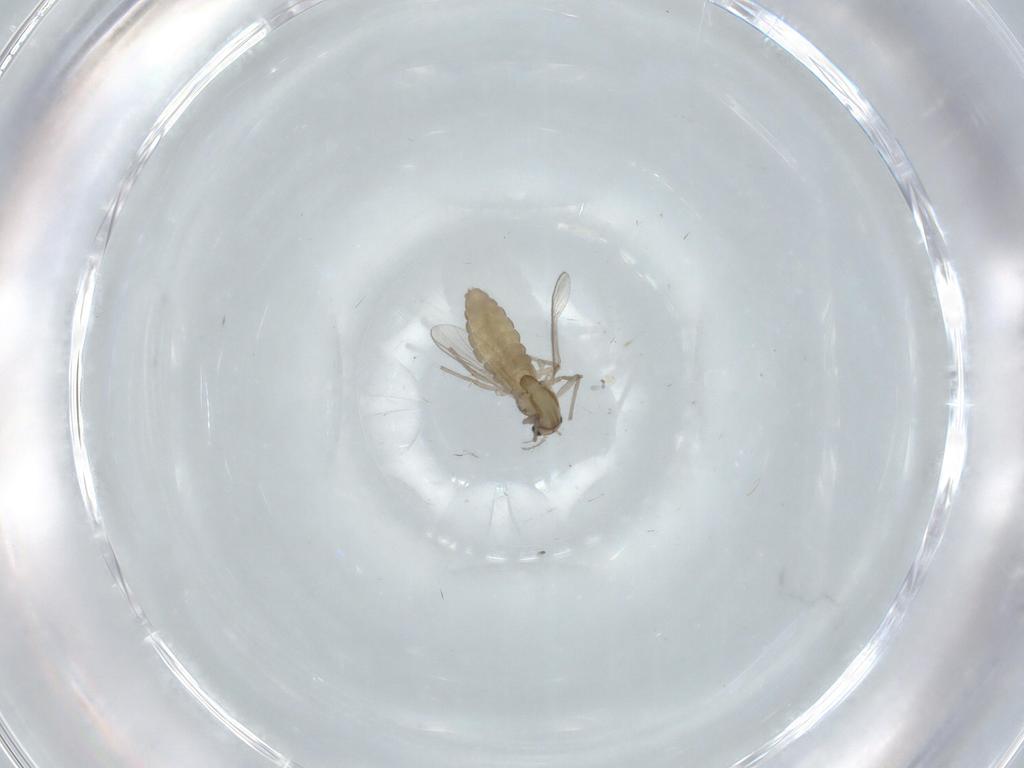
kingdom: Animalia
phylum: Arthropoda
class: Insecta
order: Diptera
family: Chironomidae
